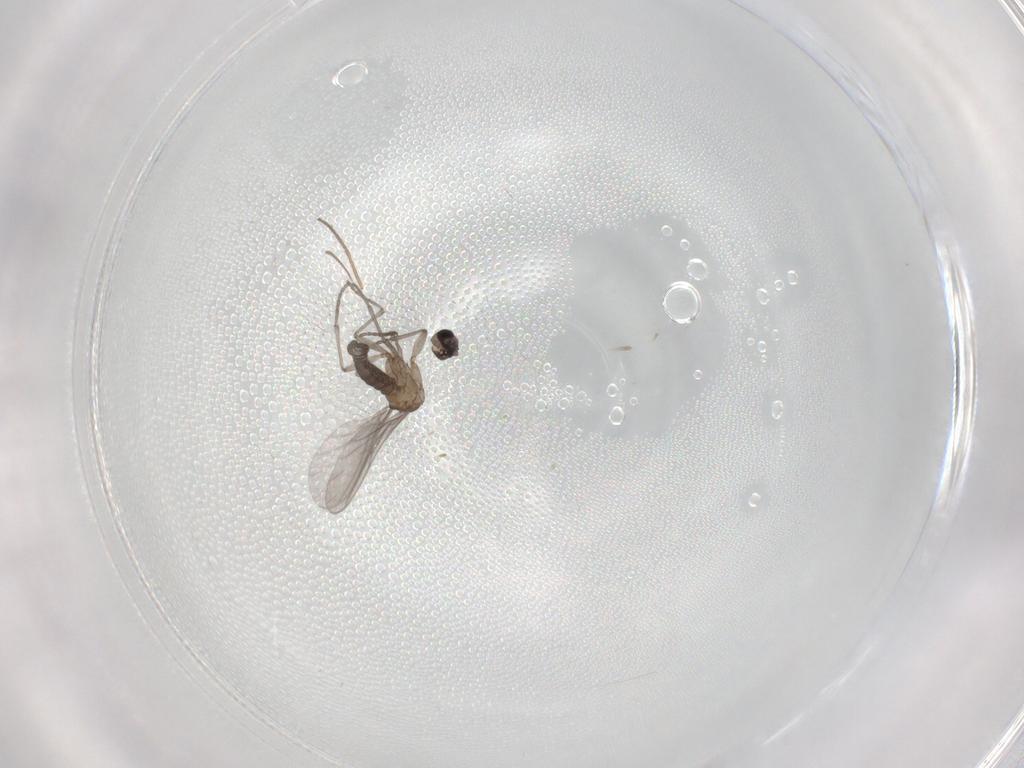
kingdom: Animalia
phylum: Arthropoda
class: Insecta
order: Diptera
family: Sciaridae
